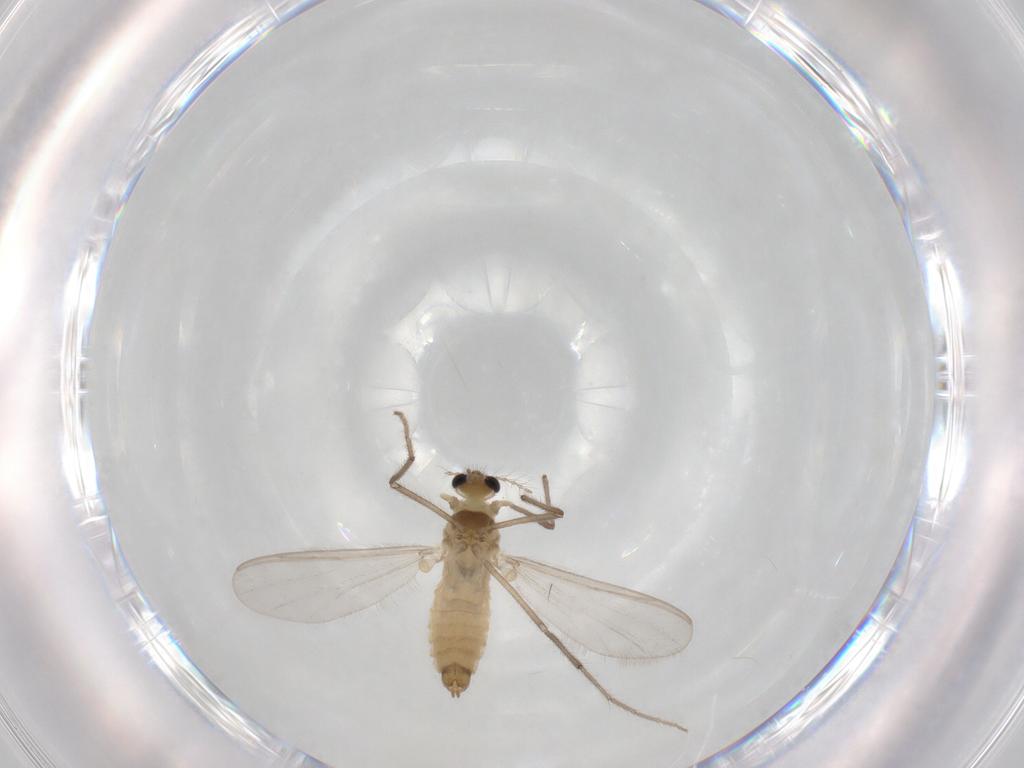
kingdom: Animalia
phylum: Arthropoda
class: Insecta
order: Diptera
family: Chironomidae
